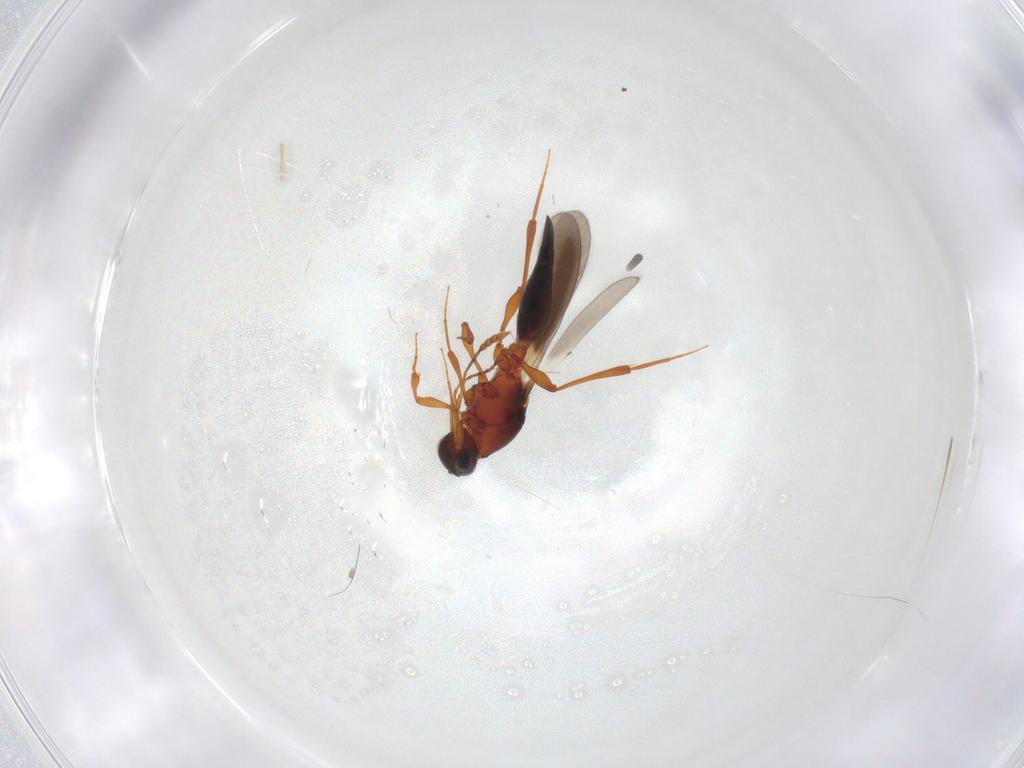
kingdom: Animalia
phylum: Arthropoda
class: Insecta
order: Hymenoptera
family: Platygastridae
